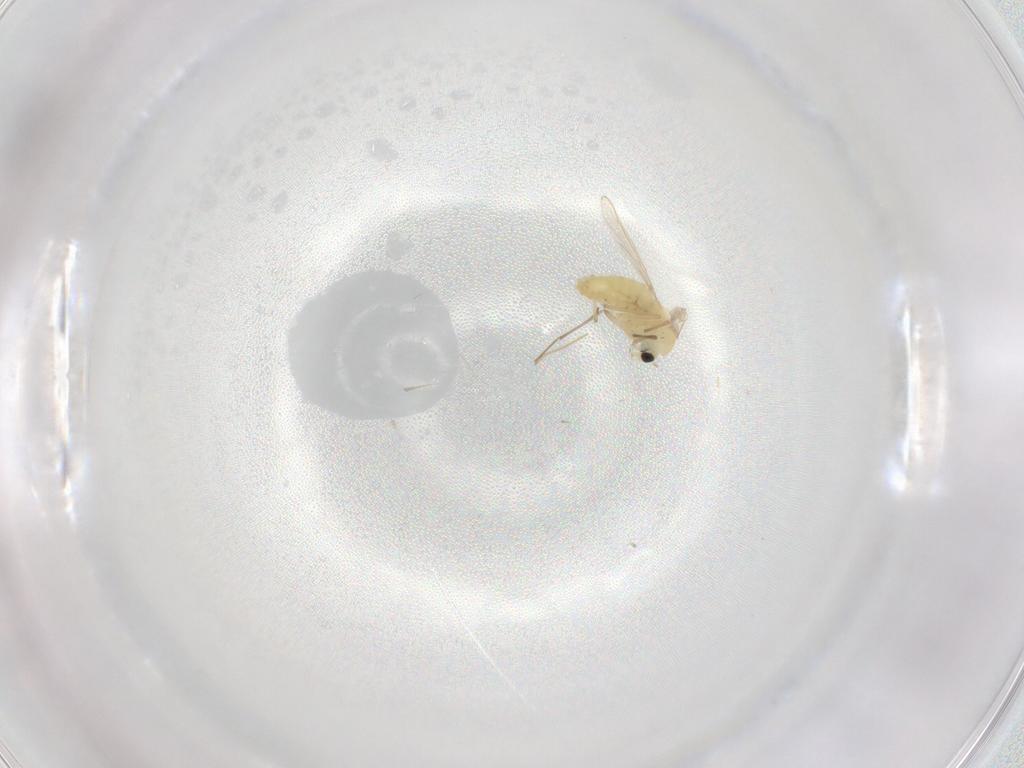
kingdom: Animalia
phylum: Arthropoda
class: Insecta
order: Diptera
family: Chironomidae
